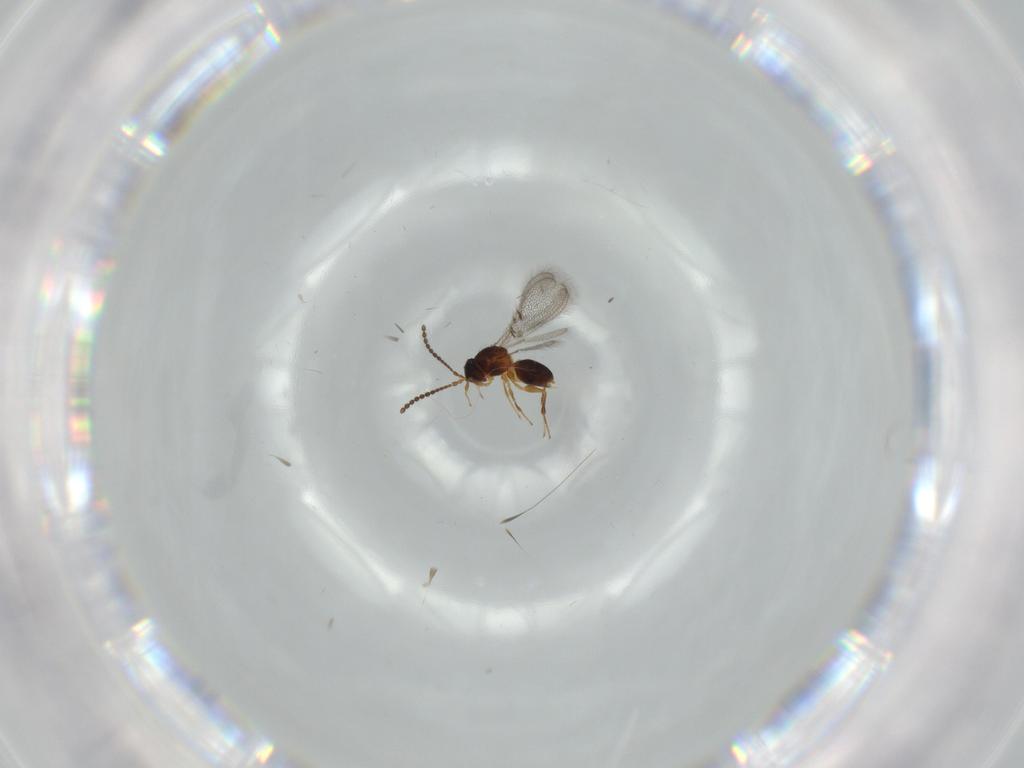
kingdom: Animalia
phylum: Arthropoda
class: Insecta
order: Hymenoptera
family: Figitidae
